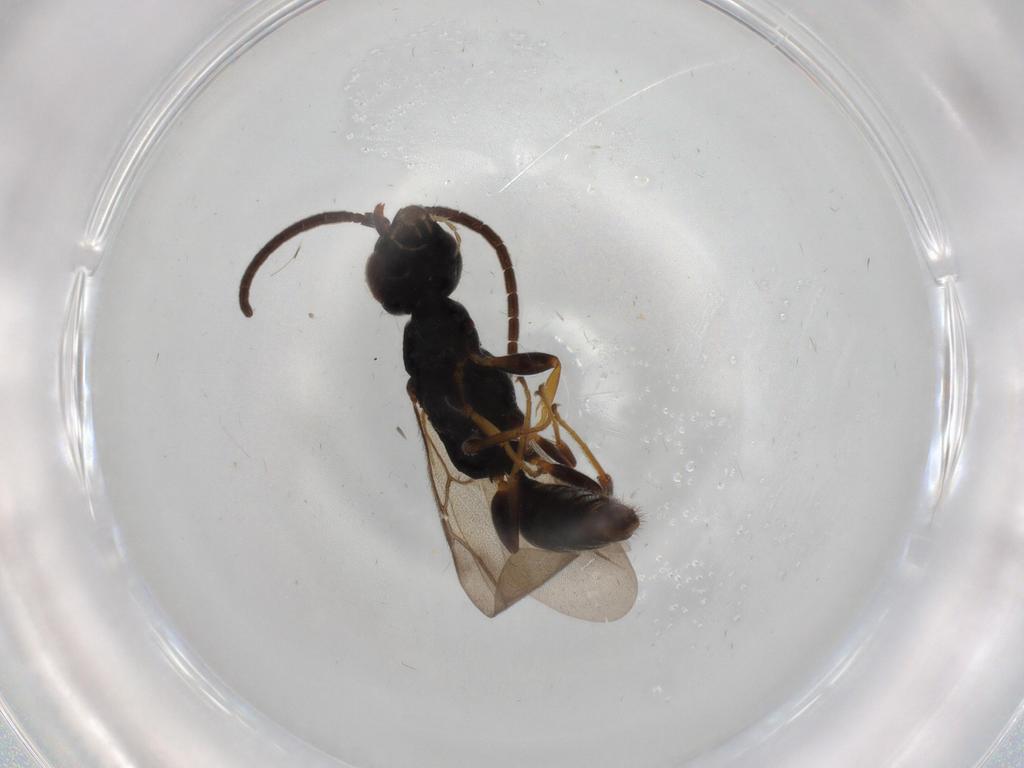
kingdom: Animalia
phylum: Arthropoda
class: Insecta
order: Hymenoptera
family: Bethylidae
